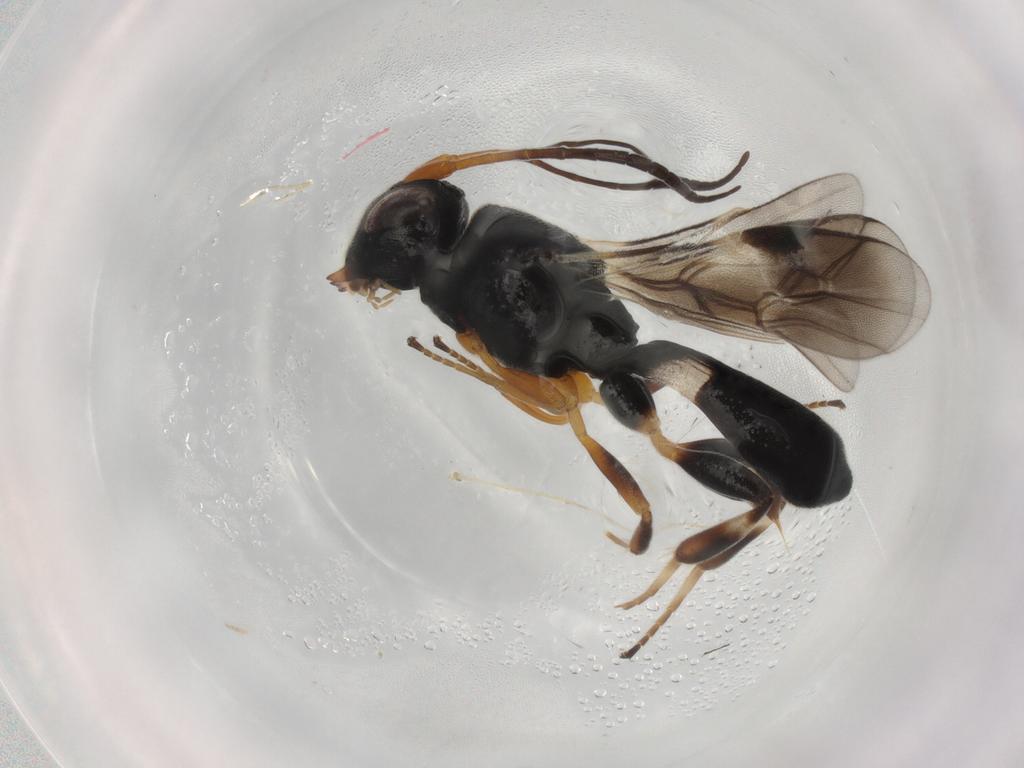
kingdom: Animalia
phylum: Arthropoda
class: Insecta
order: Hymenoptera
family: Braconidae
